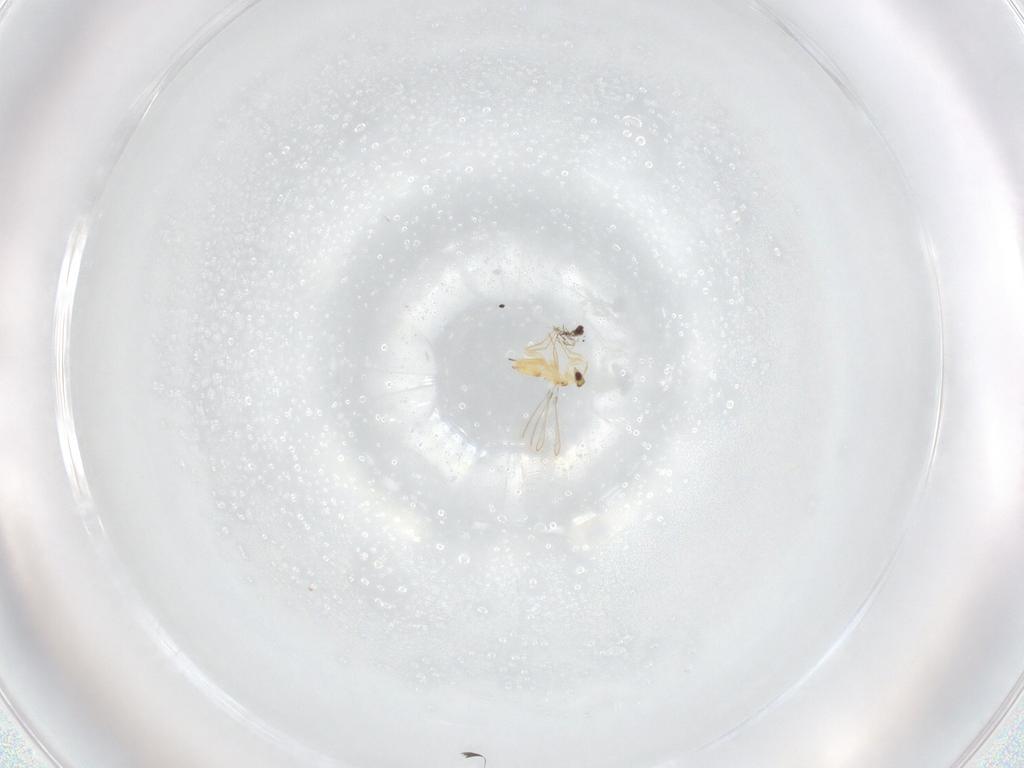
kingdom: Animalia
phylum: Arthropoda
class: Insecta
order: Hymenoptera
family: Mymaridae
